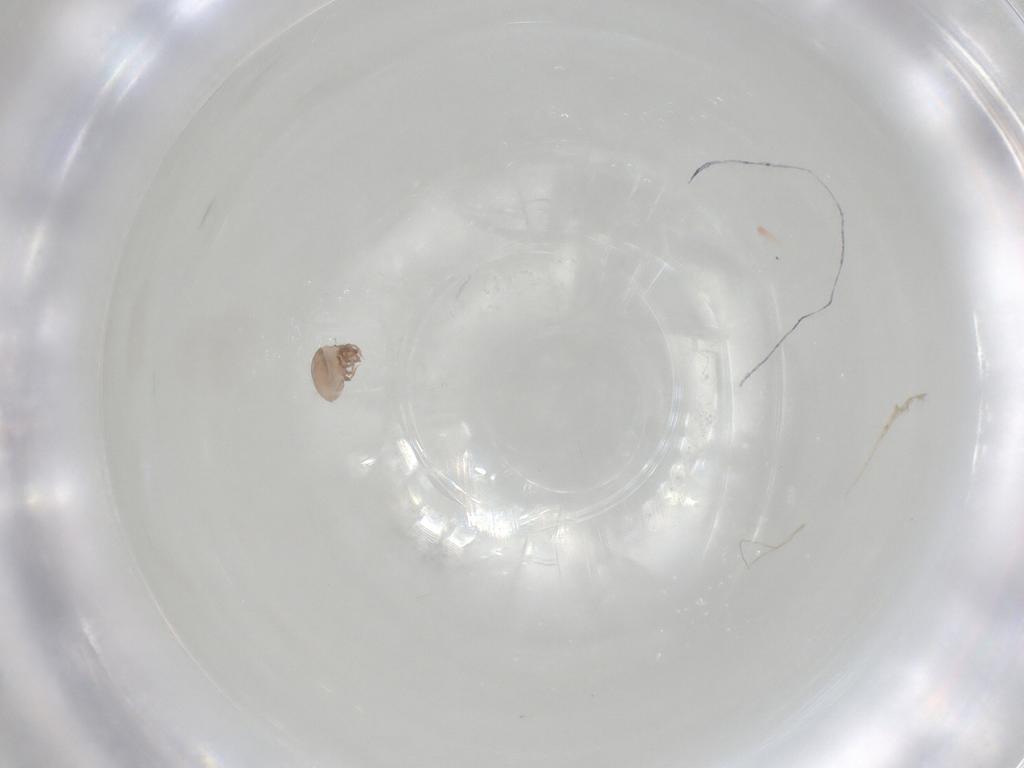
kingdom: Animalia
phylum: Arthropoda
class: Arachnida
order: Sarcoptiformes
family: Galumnidae
